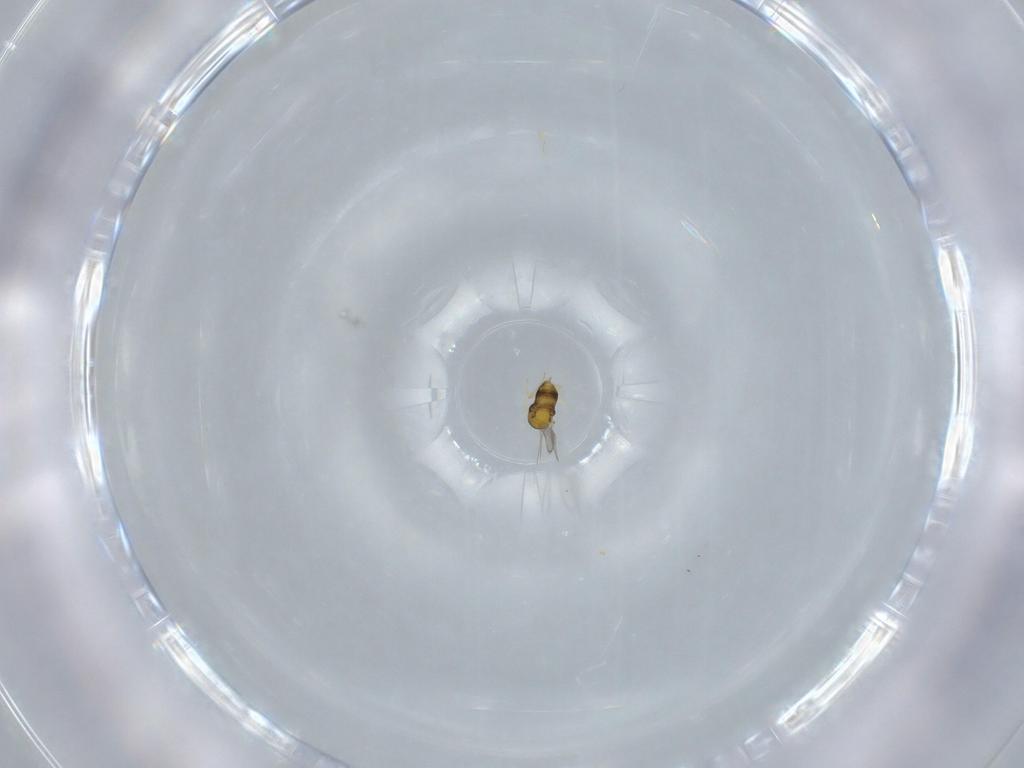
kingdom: Animalia
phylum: Arthropoda
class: Insecta
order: Hymenoptera
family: Aphelinidae
